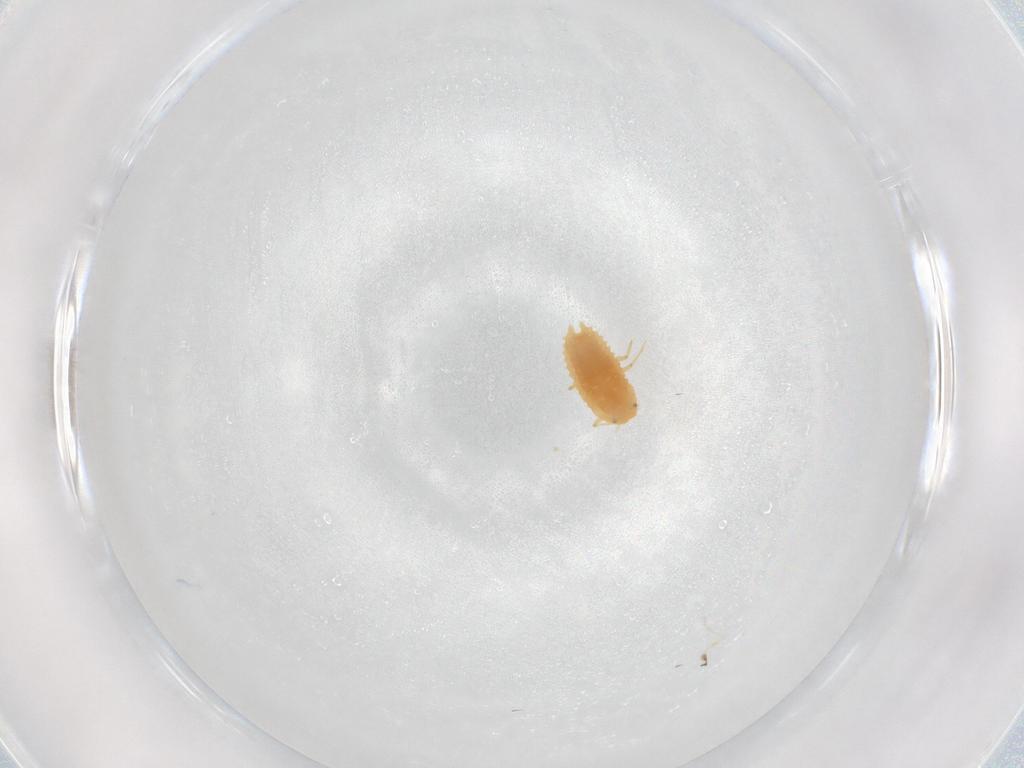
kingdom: Animalia
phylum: Arthropoda
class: Insecta
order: Hemiptera
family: Aleyrodidae
